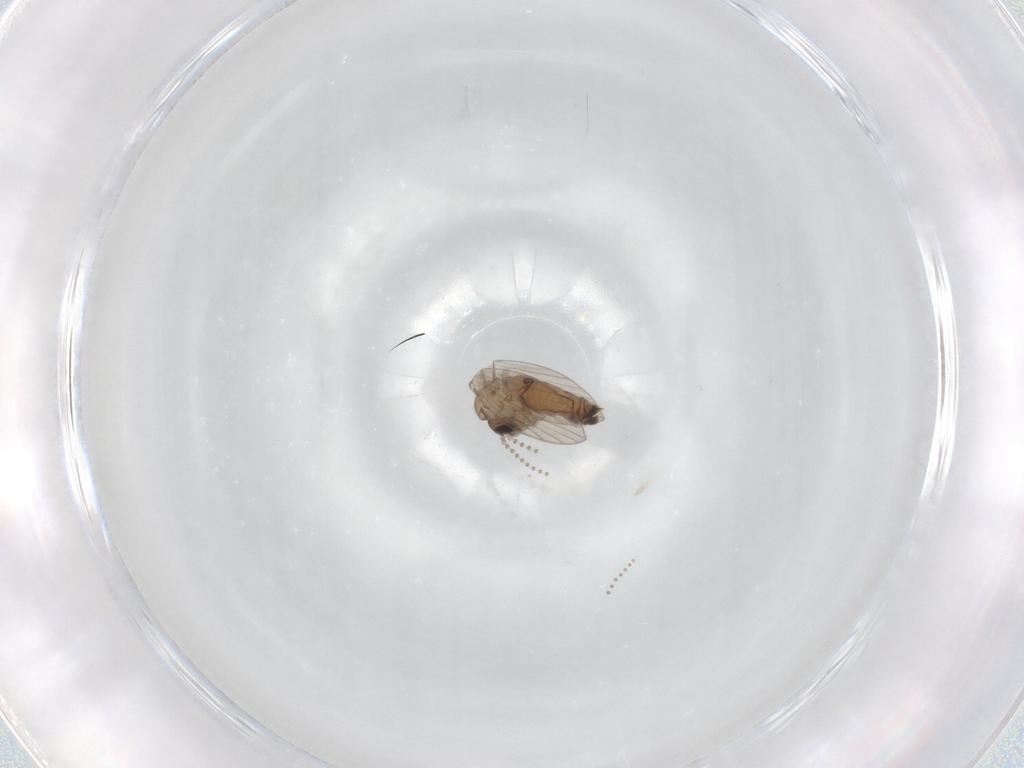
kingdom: Animalia
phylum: Arthropoda
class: Insecta
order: Diptera
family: Psychodidae
